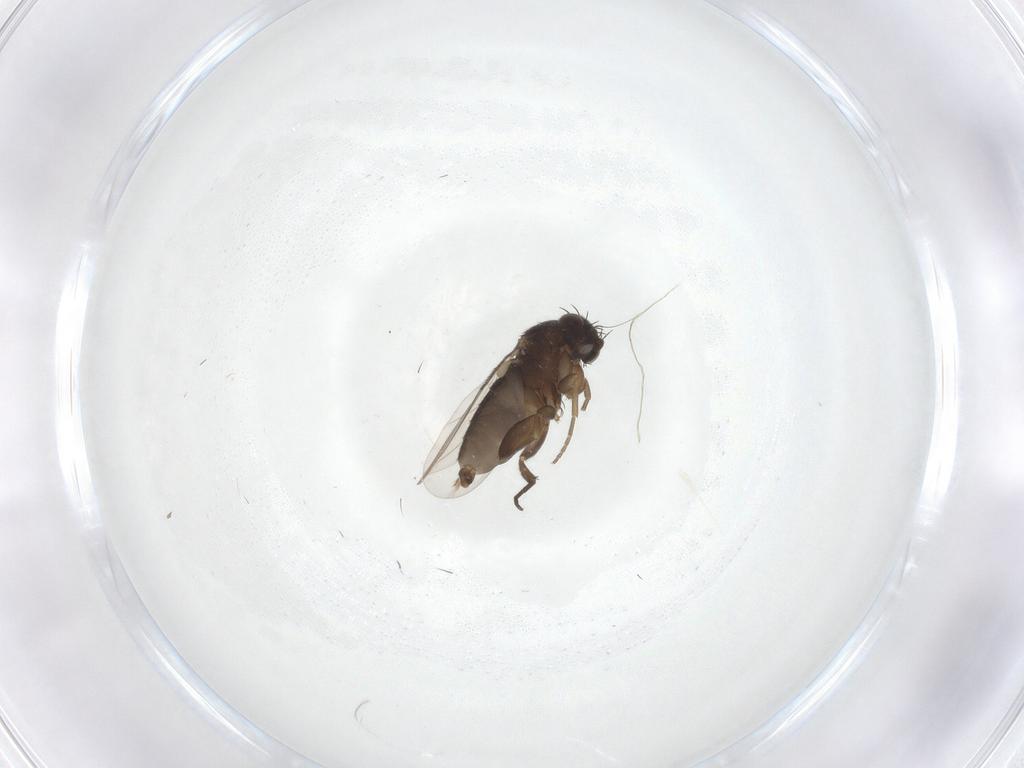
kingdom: Animalia
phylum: Arthropoda
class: Insecta
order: Diptera
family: Phoridae
